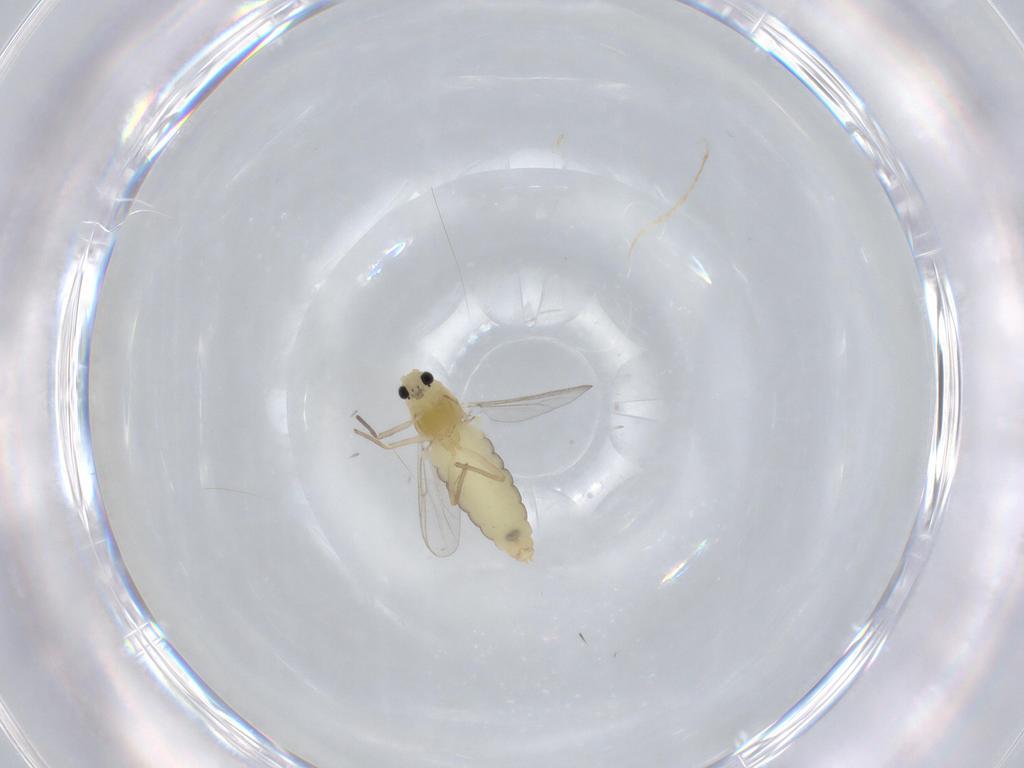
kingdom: Animalia
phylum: Arthropoda
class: Insecta
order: Diptera
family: Chironomidae
